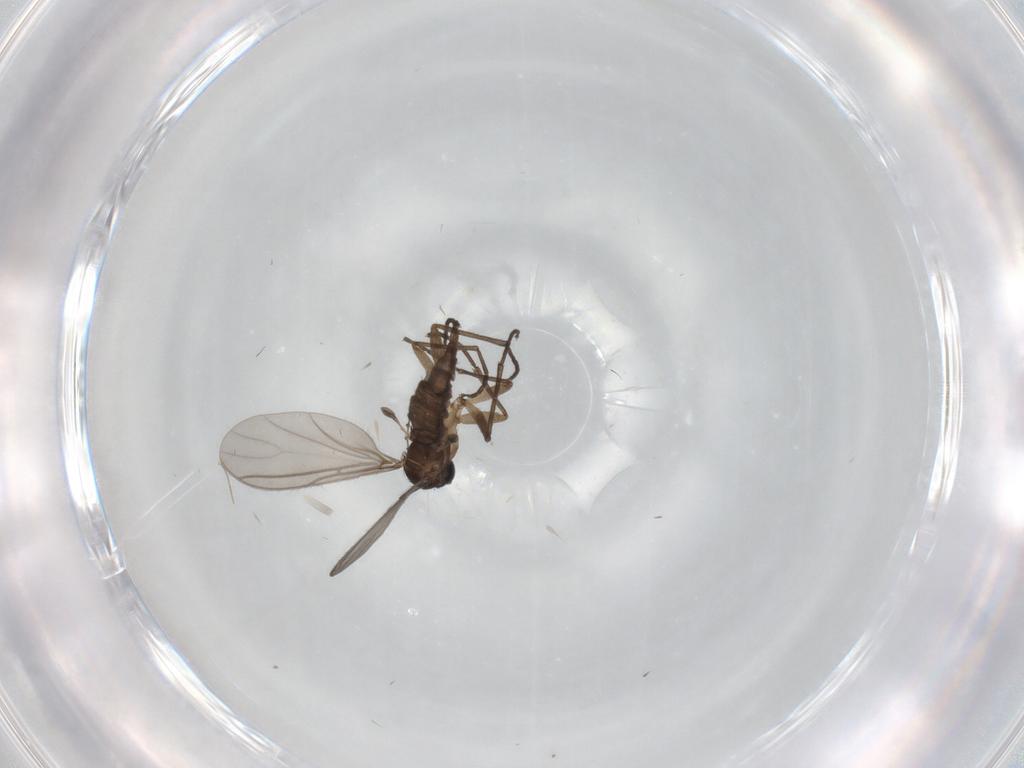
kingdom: Animalia
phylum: Arthropoda
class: Insecta
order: Diptera
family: Sciaridae
